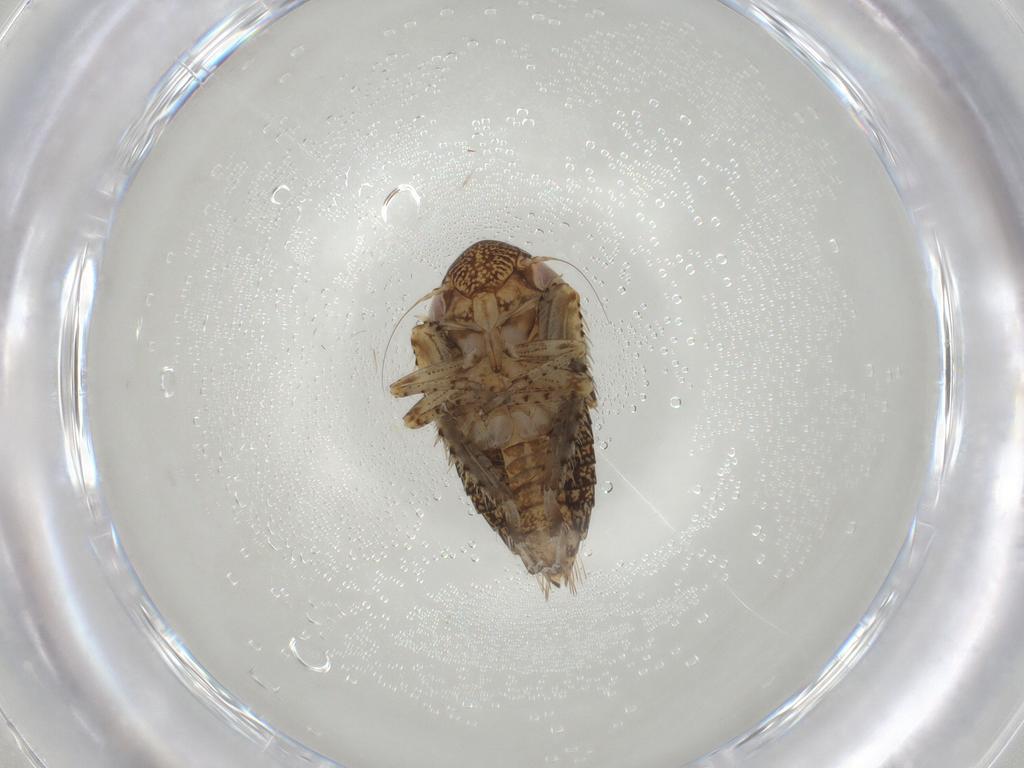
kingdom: Animalia
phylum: Arthropoda
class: Insecta
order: Hemiptera
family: Cicadellidae
